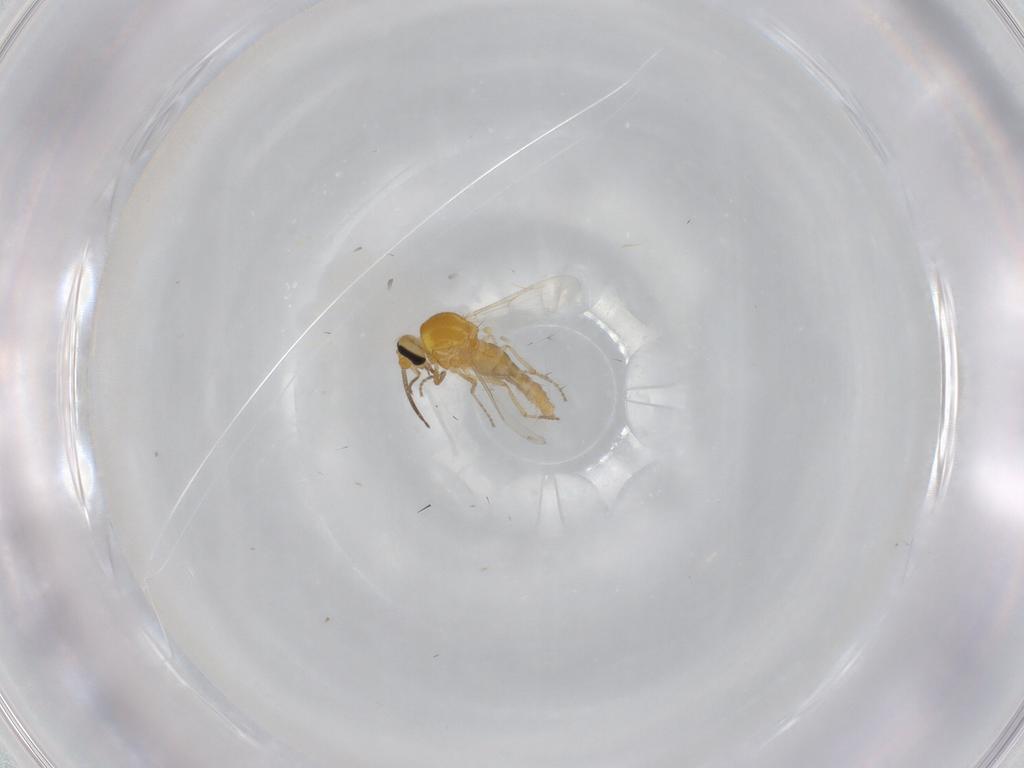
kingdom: Animalia
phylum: Arthropoda
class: Insecta
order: Diptera
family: Ceratopogonidae
